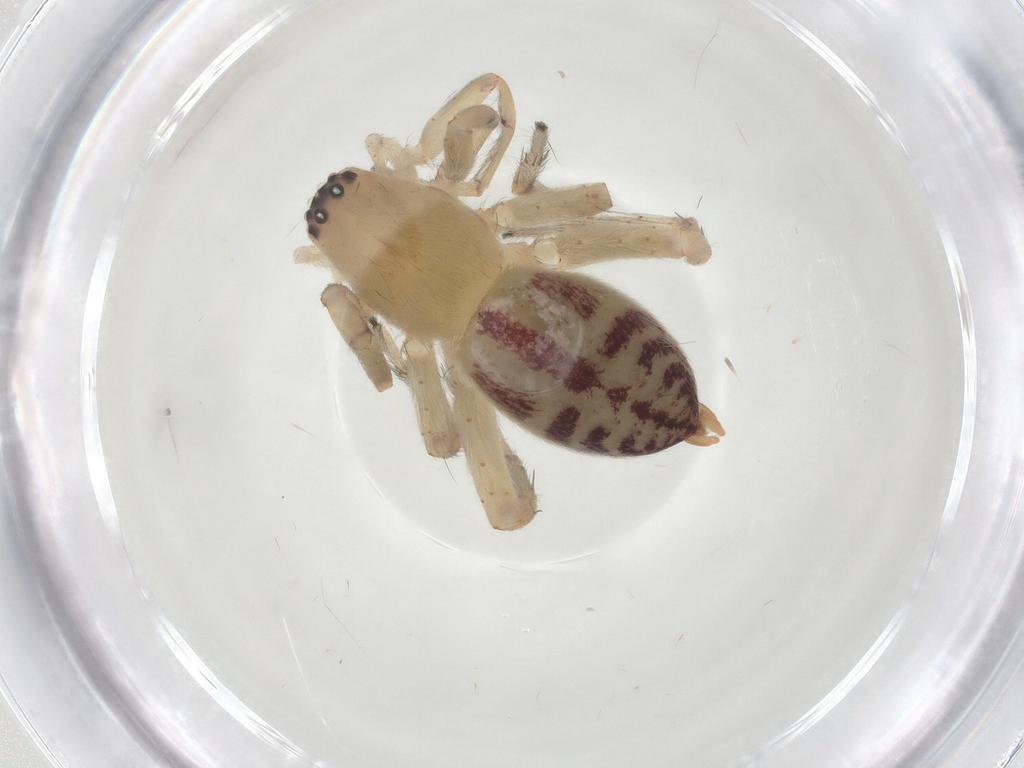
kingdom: Animalia
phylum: Arthropoda
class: Arachnida
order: Araneae
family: Clubionidae
